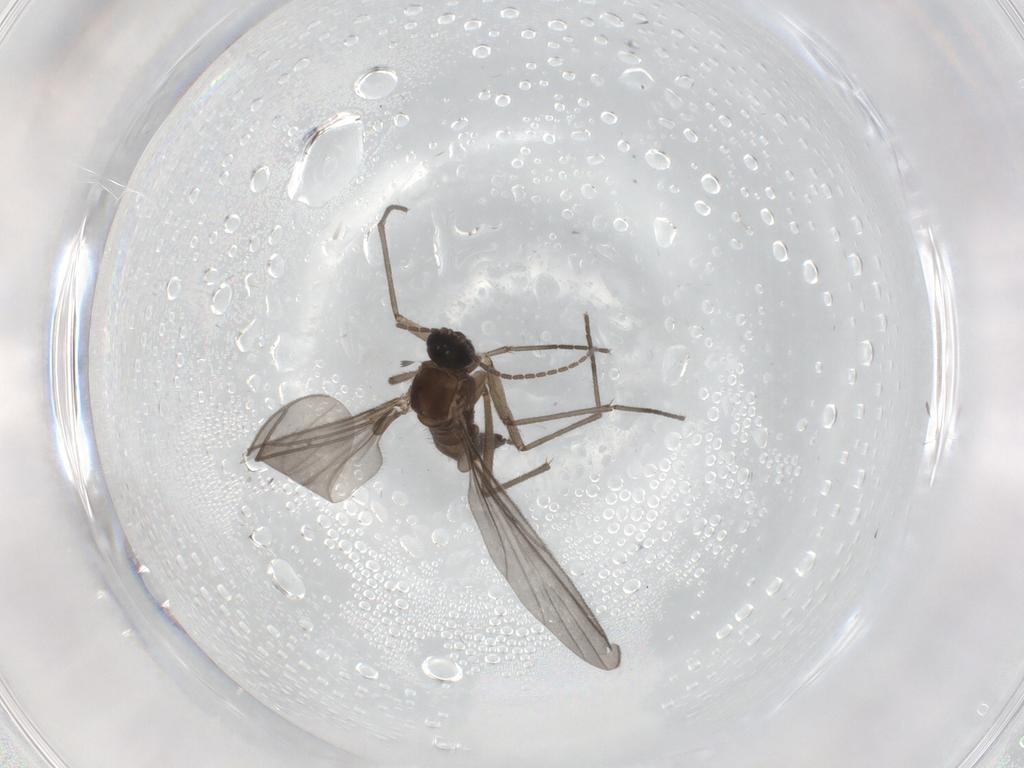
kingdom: Animalia
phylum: Arthropoda
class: Insecta
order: Diptera
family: Sciaridae
